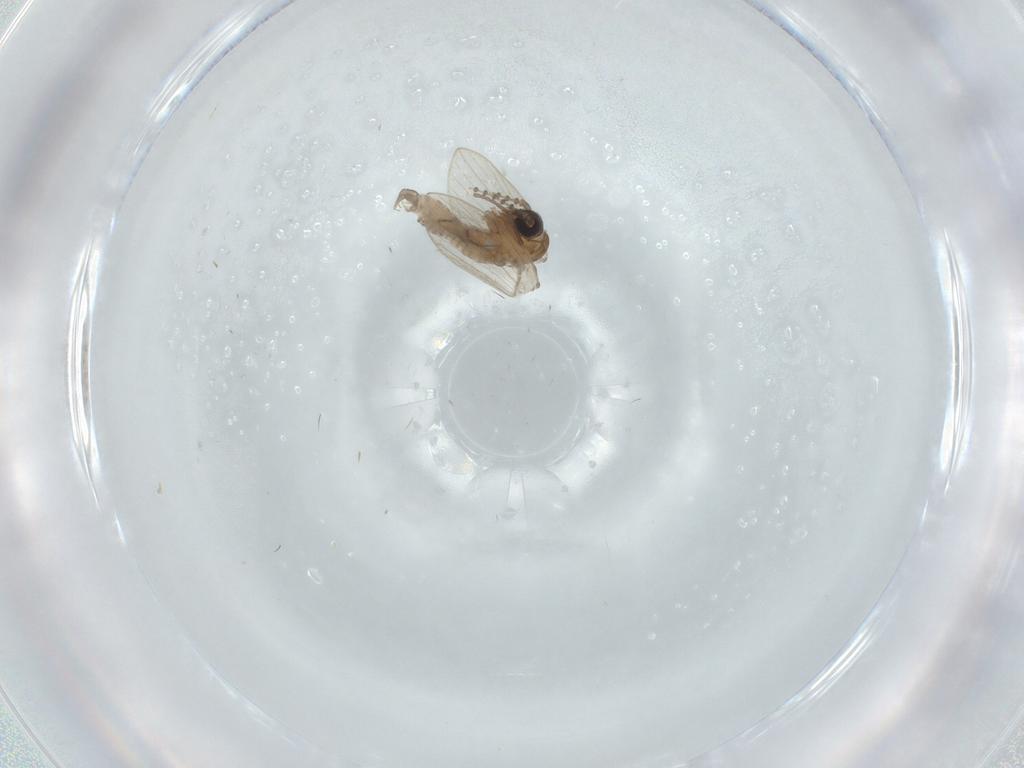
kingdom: Animalia
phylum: Arthropoda
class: Insecta
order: Diptera
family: Psychodidae
